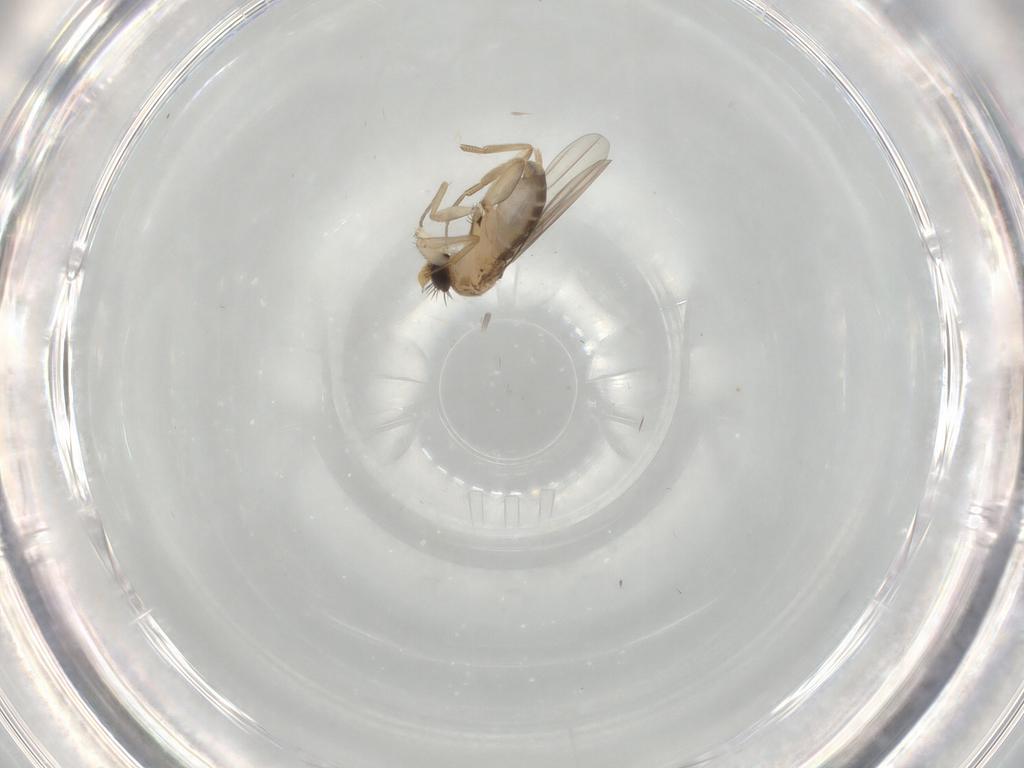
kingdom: Animalia
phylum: Arthropoda
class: Insecta
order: Diptera
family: Phoridae
